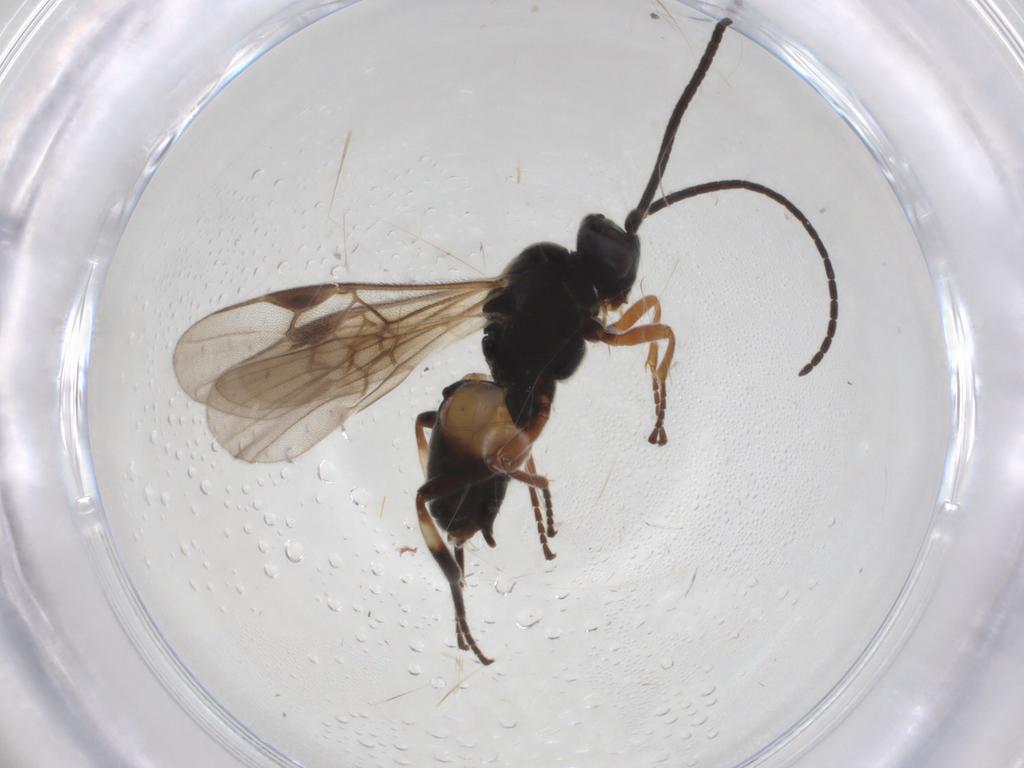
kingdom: Animalia
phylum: Arthropoda
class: Insecta
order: Hymenoptera
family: Braconidae
